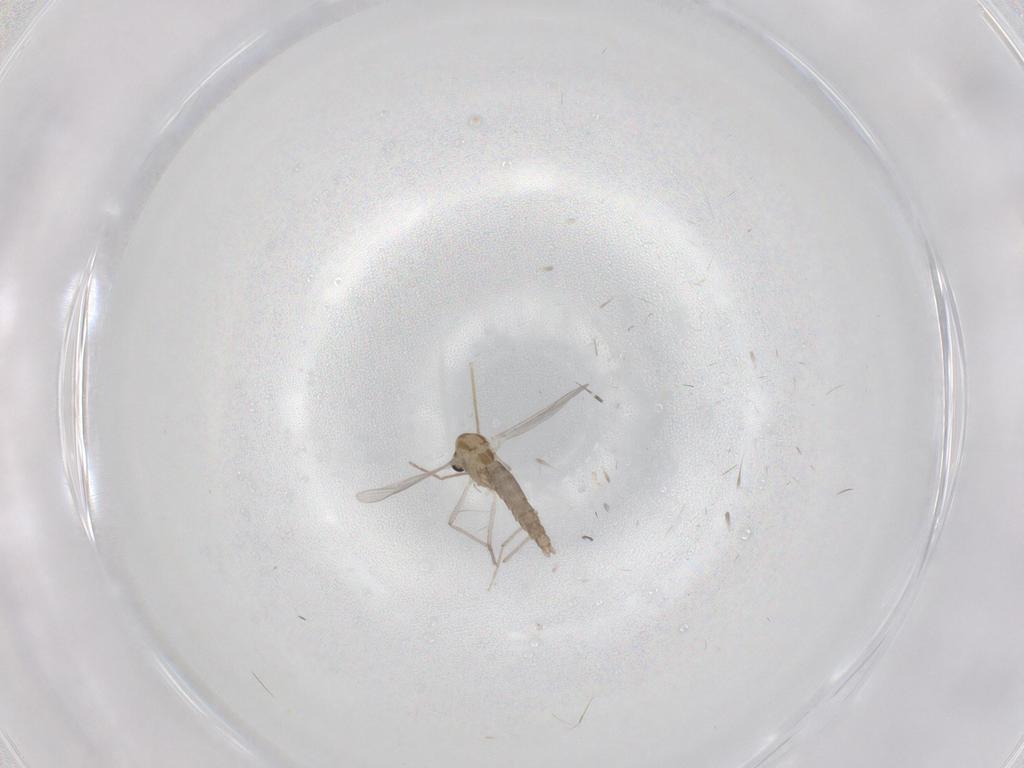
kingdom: Animalia
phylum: Arthropoda
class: Insecta
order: Diptera
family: Chironomidae
